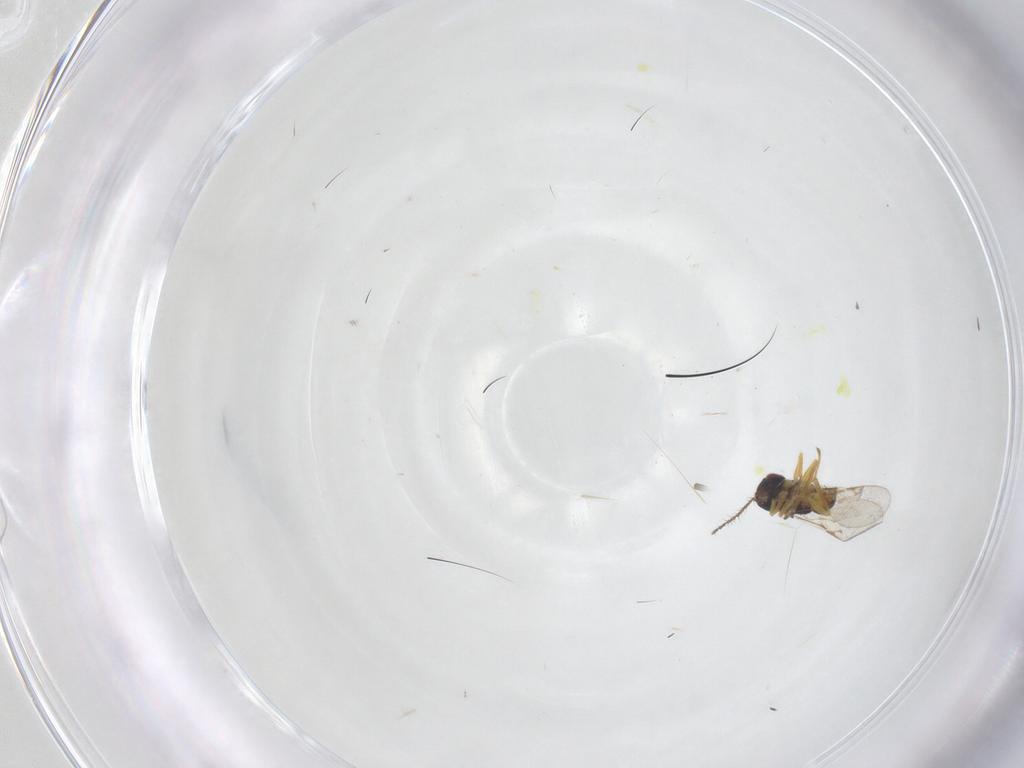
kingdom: Animalia
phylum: Arthropoda
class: Insecta
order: Hymenoptera
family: Encyrtidae
